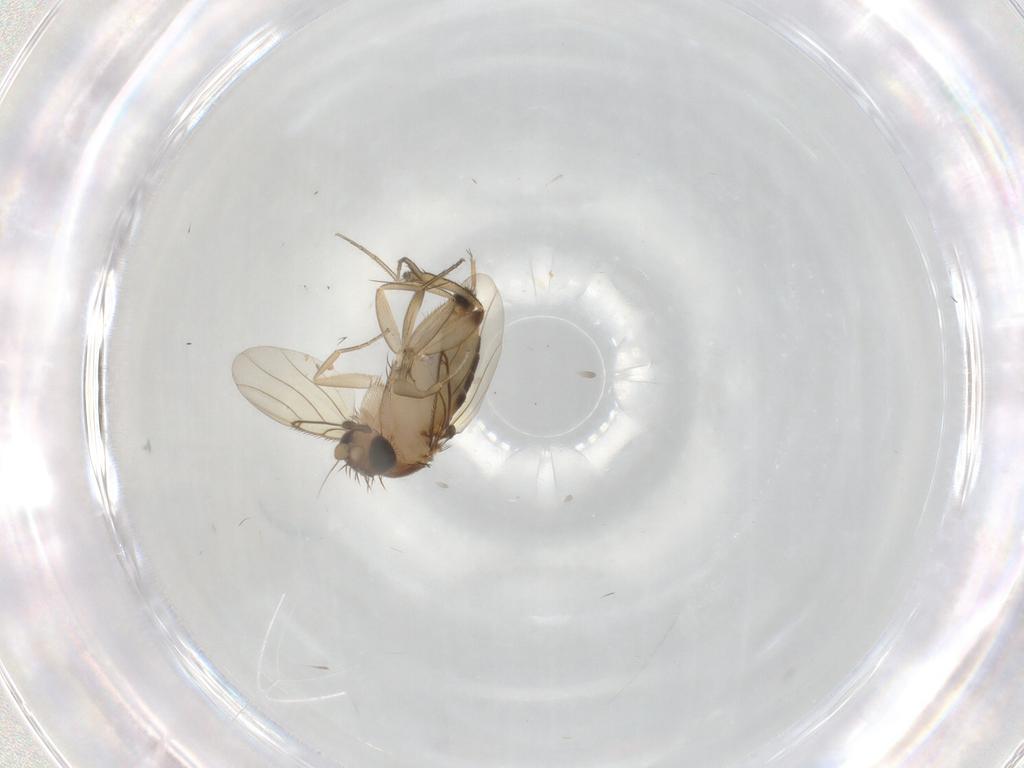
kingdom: Animalia
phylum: Arthropoda
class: Insecta
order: Diptera
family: Phoridae
